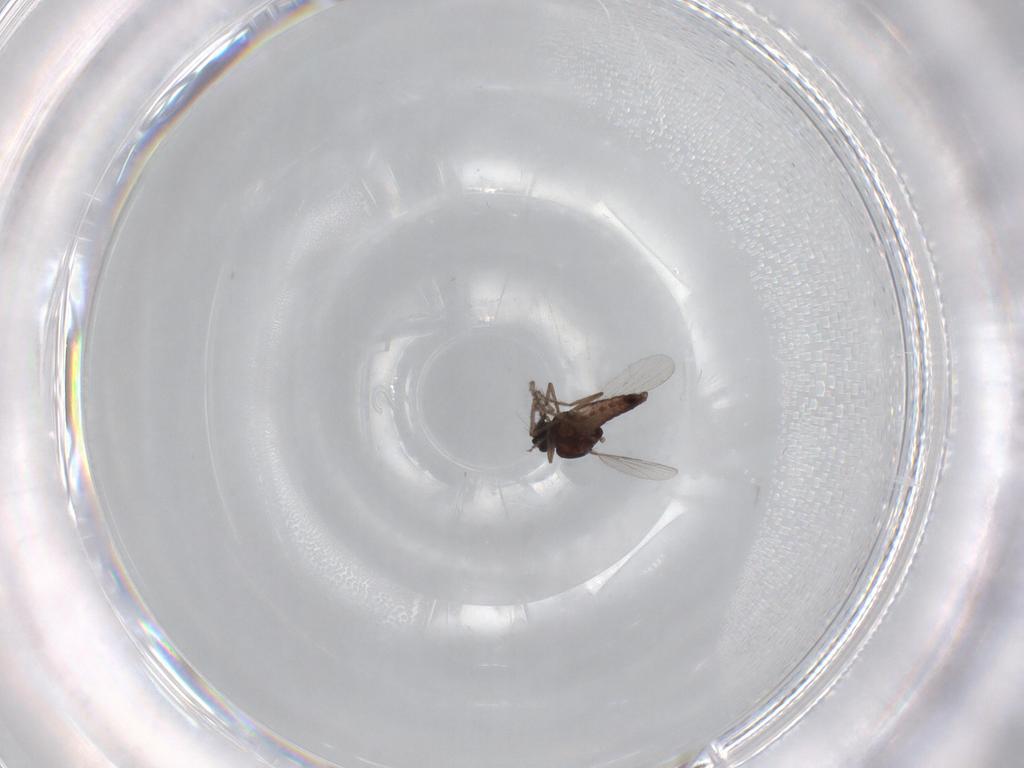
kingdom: Animalia
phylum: Arthropoda
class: Insecta
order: Diptera
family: Ceratopogonidae
